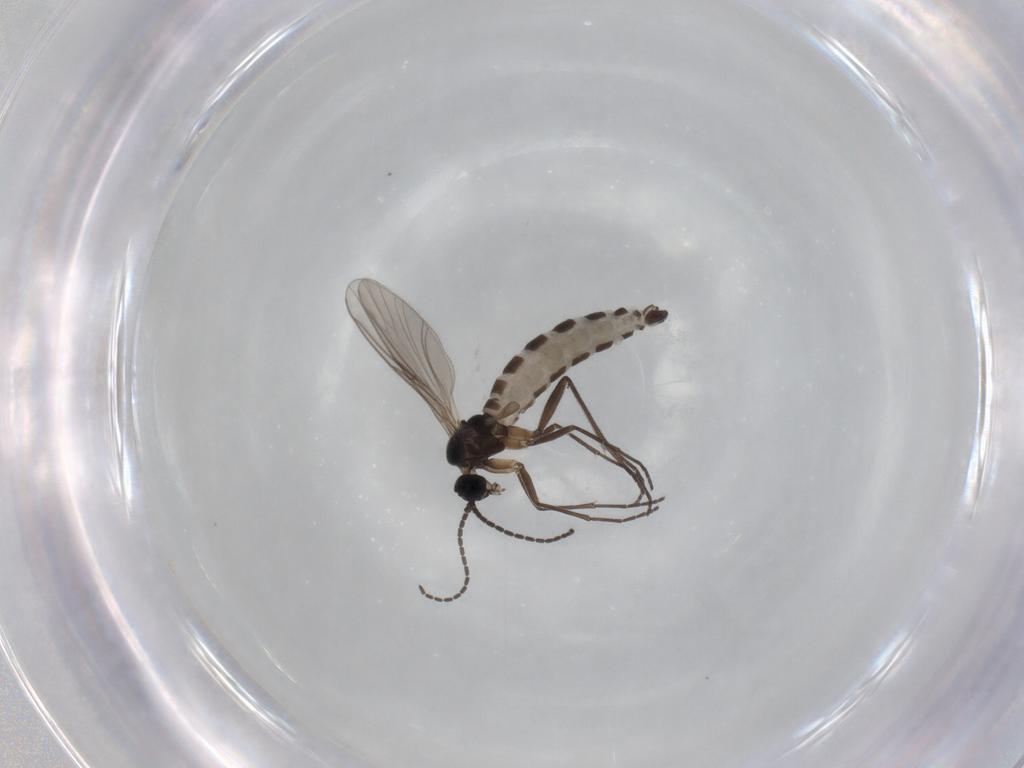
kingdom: Animalia
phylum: Arthropoda
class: Insecta
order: Diptera
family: Sciaridae
